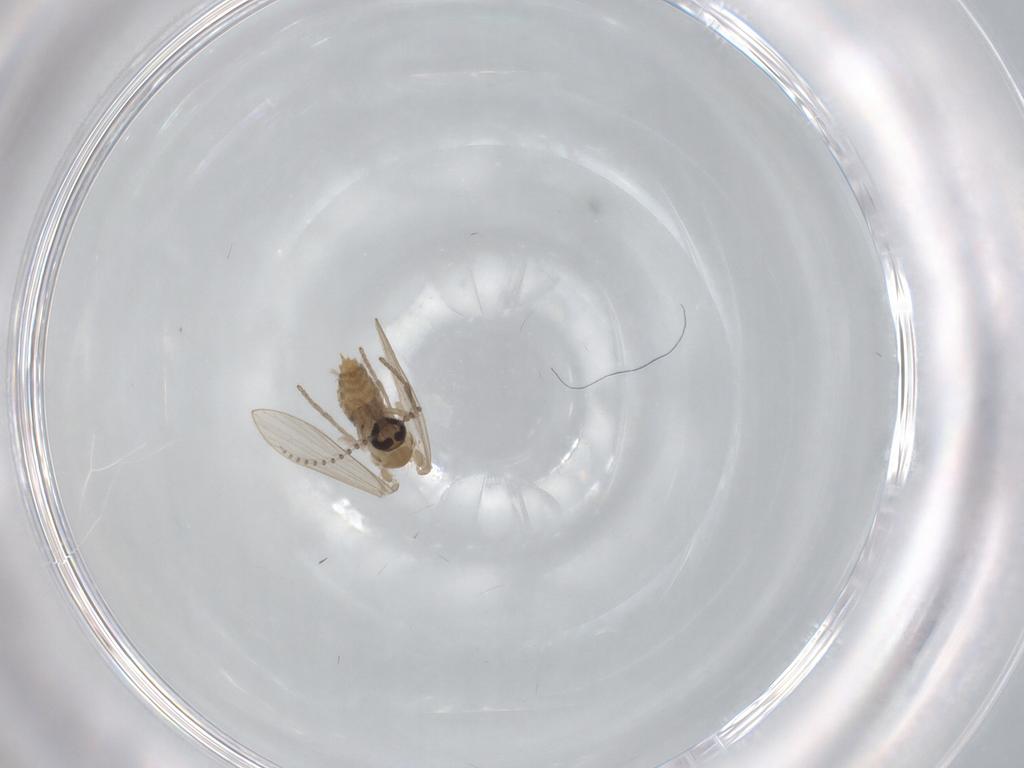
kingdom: Animalia
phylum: Arthropoda
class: Insecta
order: Diptera
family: Psychodidae
